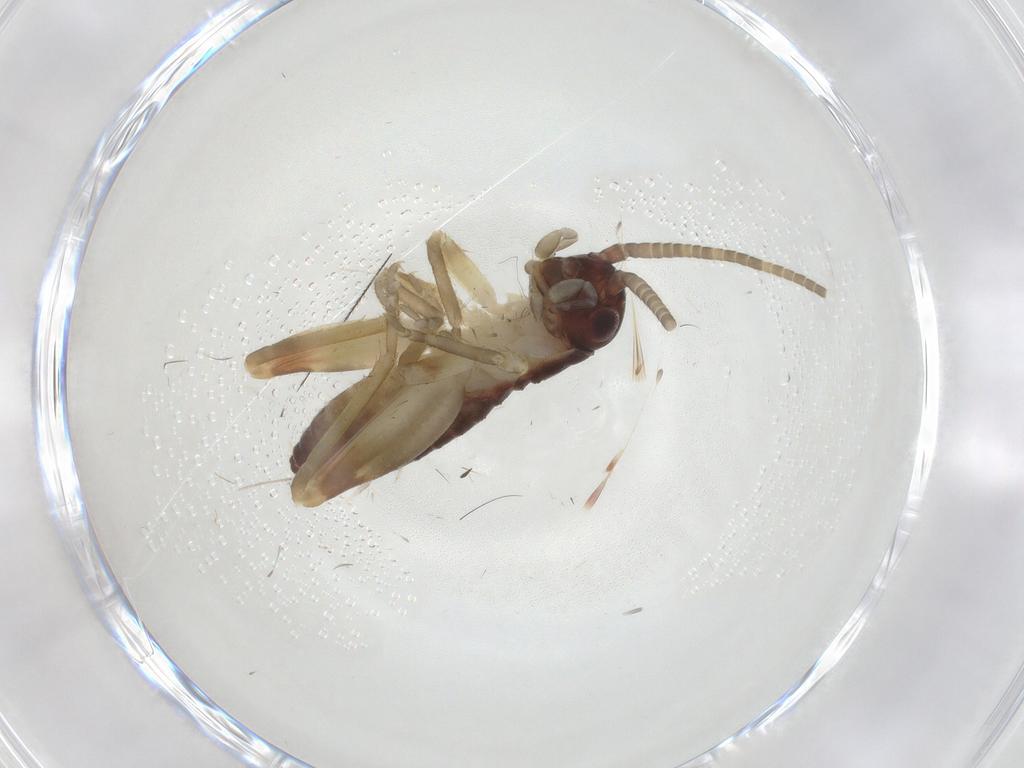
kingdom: Animalia
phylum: Arthropoda
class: Insecta
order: Orthoptera
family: Gryllidae
